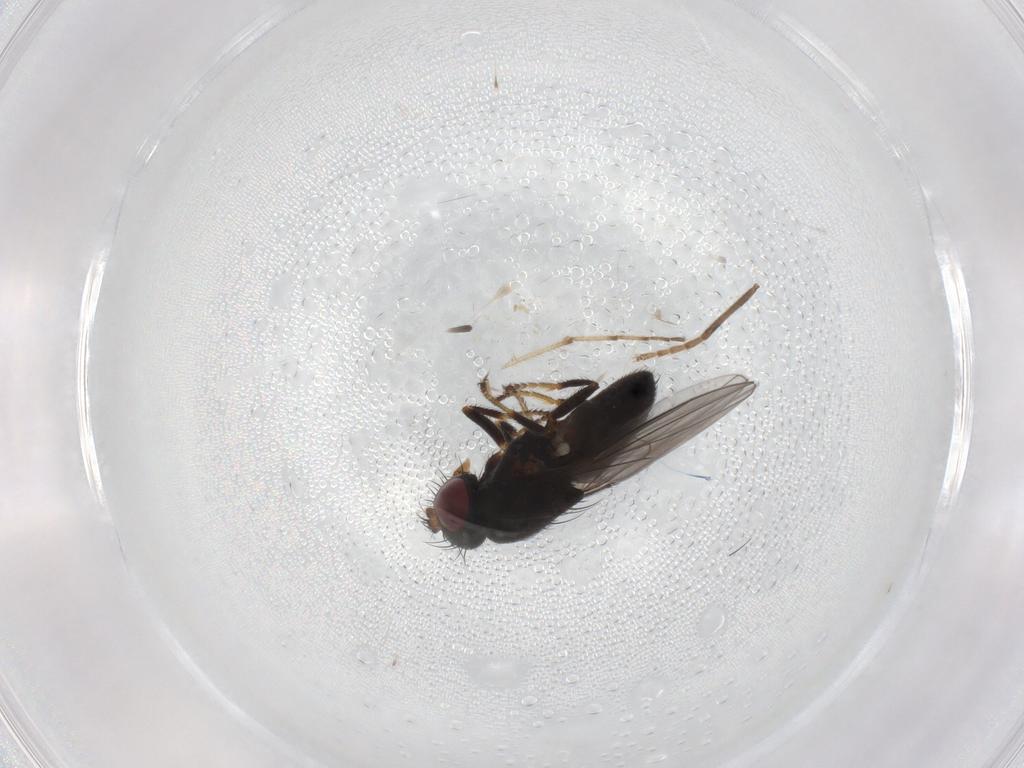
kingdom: Animalia
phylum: Arthropoda
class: Insecta
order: Diptera
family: Chironomidae
